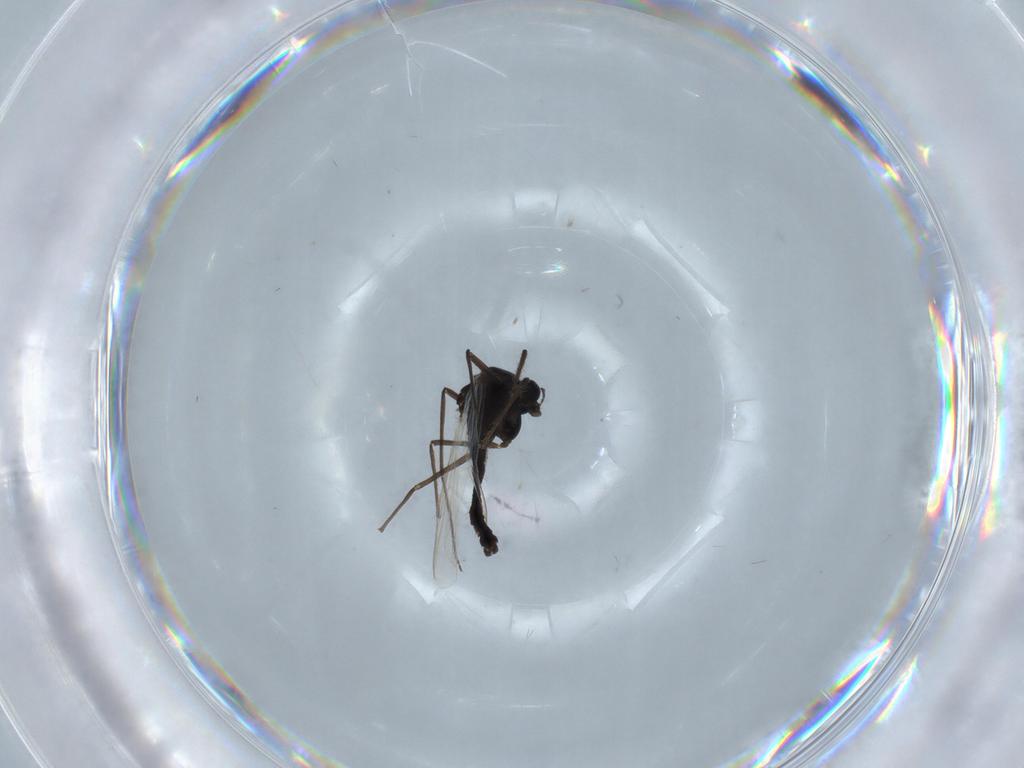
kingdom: Animalia
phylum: Arthropoda
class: Insecta
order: Diptera
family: Chironomidae
